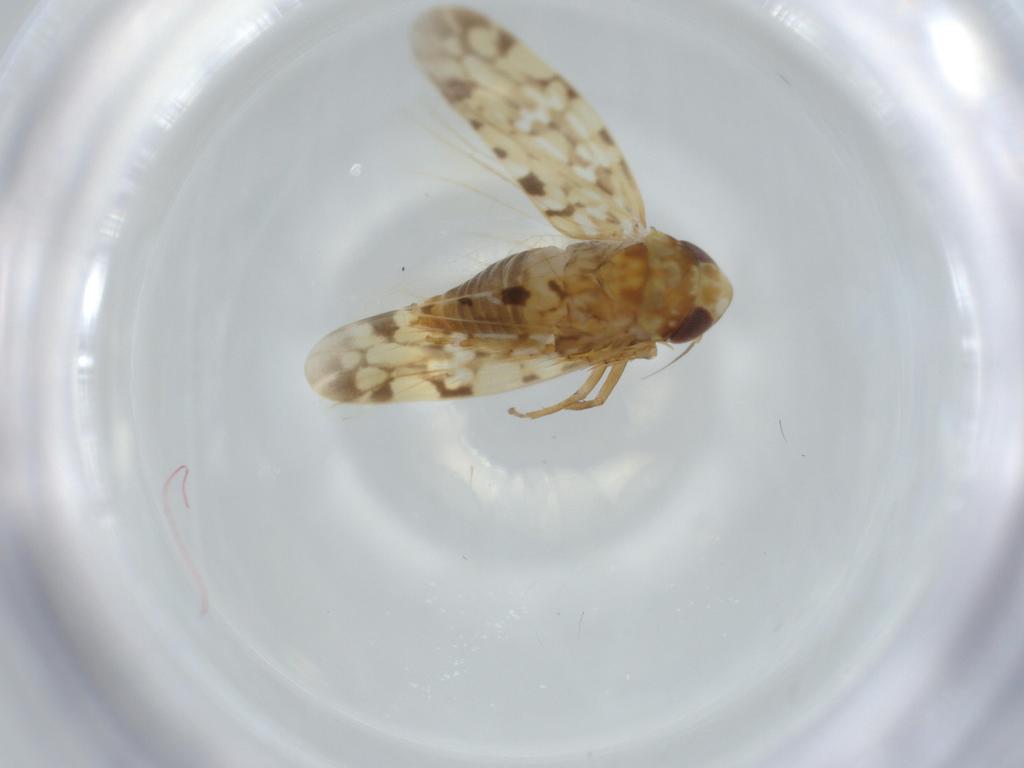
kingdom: Animalia
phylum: Arthropoda
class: Insecta
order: Hemiptera
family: Cicadellidae
